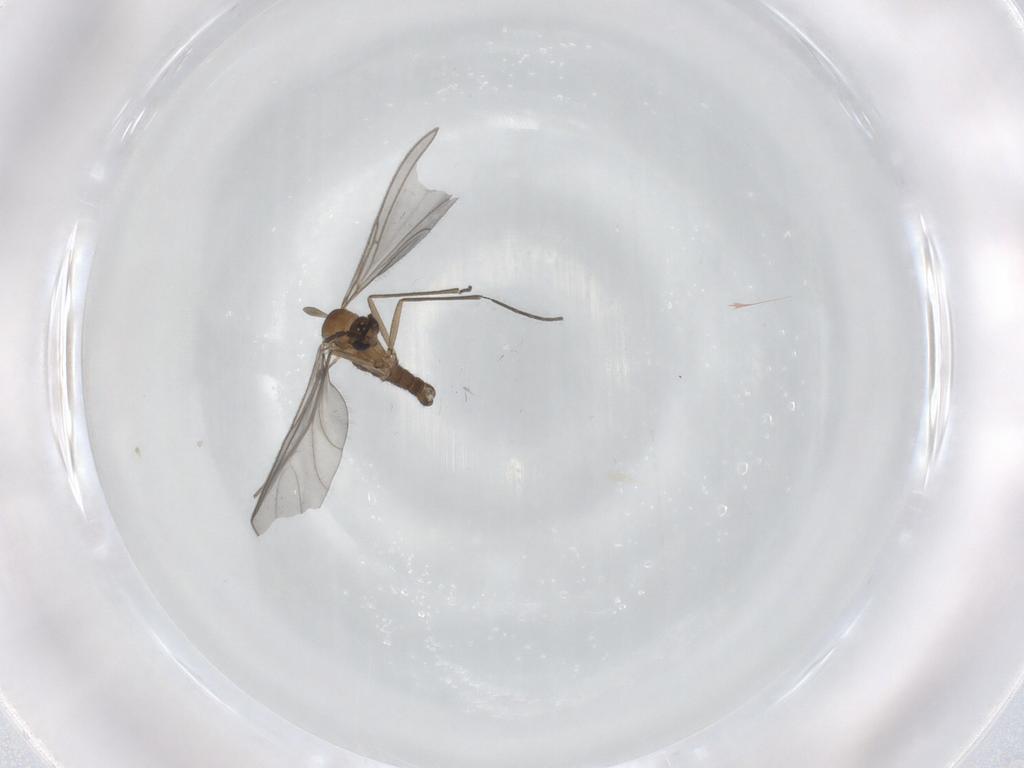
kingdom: Animalia
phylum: Arthropoda
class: Insecta
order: Diptera
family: Sciaridae
